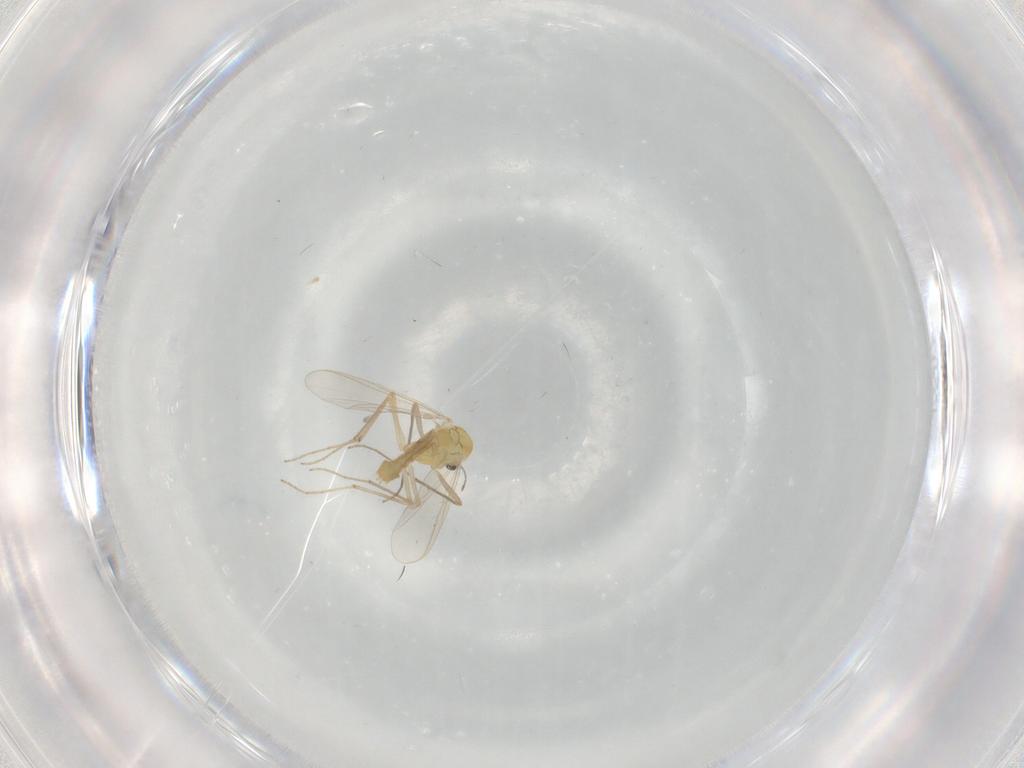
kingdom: Animalia
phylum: Arthropoda
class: Insecta
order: Diptera
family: Chironomidae
